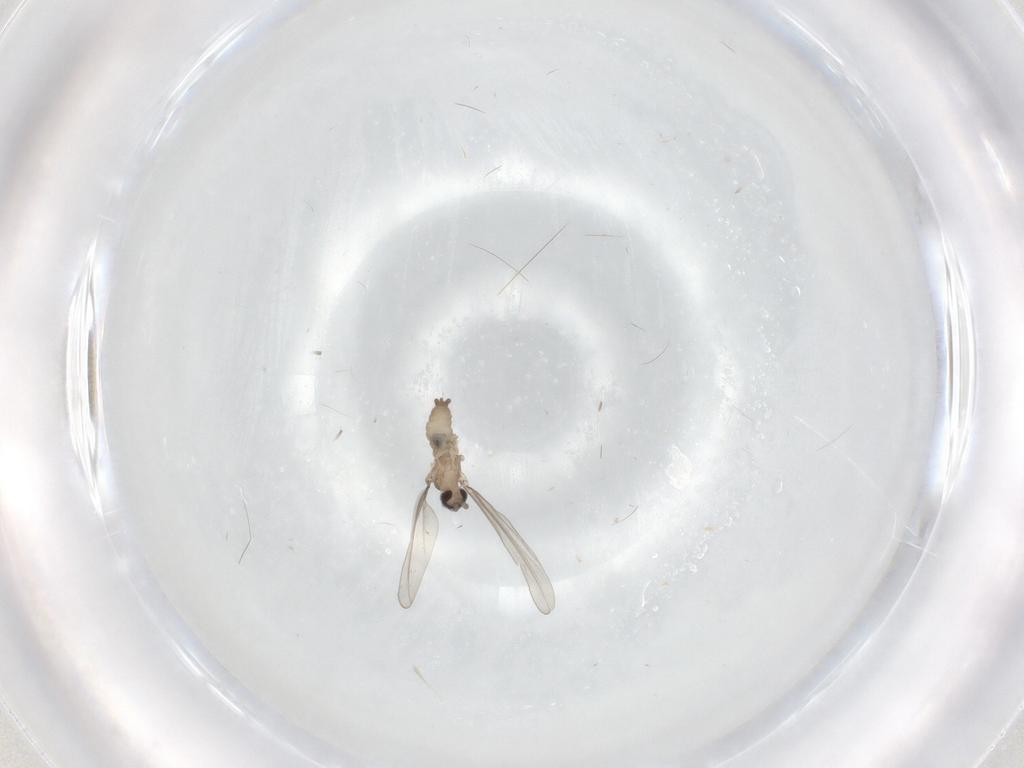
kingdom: Animalia
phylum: Arthropoda
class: Insecta
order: Diptera
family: Cecidomyiidae
